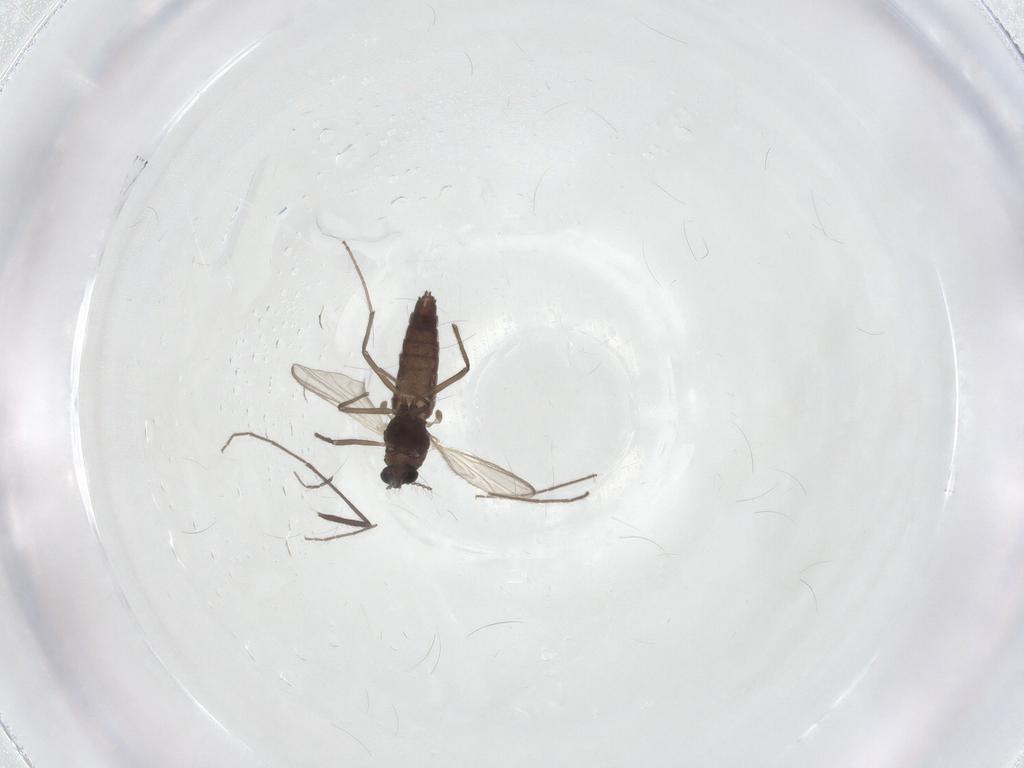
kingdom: Animalia
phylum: Arthropoda
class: Insecta
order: Diptera
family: Chironomidae
